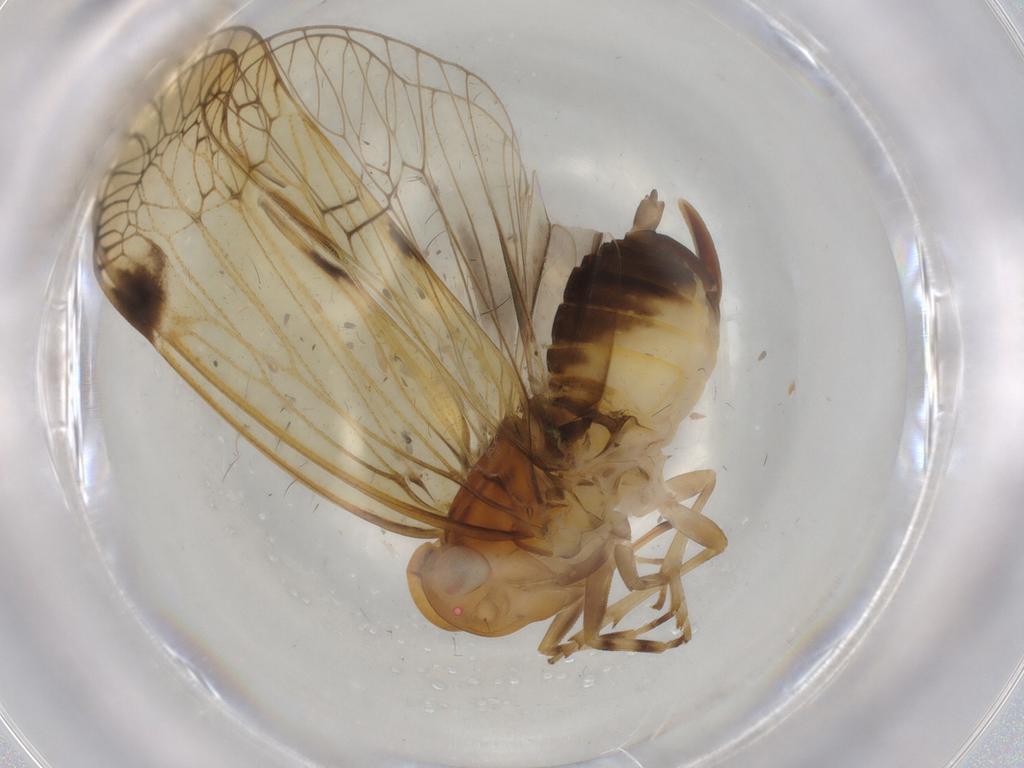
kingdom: Animalia
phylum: Arthropoda
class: Insecta
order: Hemiptera
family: Cixiidae
